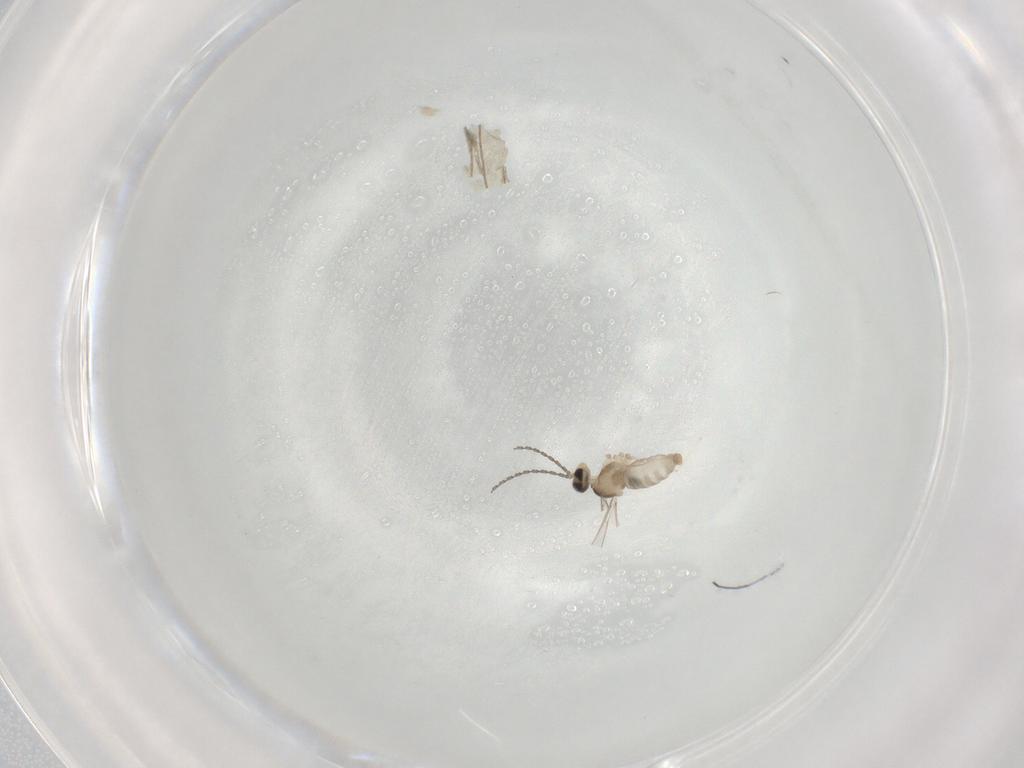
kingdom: Animalia
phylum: Arthropoda
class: Insecta
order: Diptera
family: Cecidomyiidae
